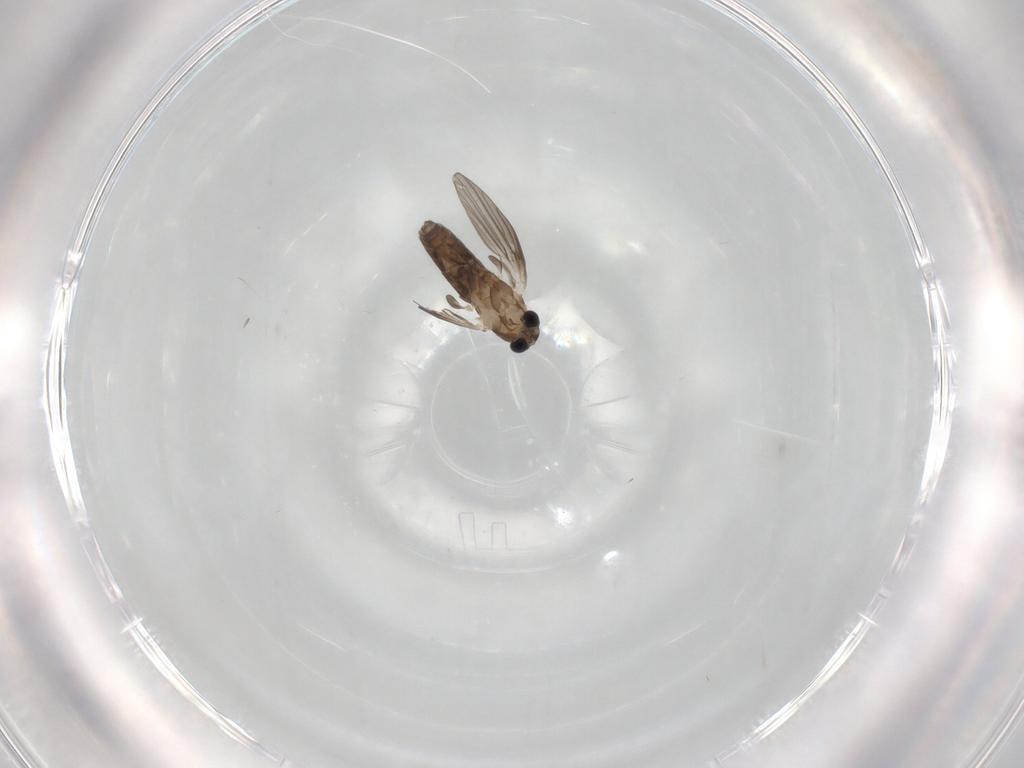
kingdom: Animalia
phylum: Arthropoda
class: Insecta
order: Diptera
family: Psychodidae
